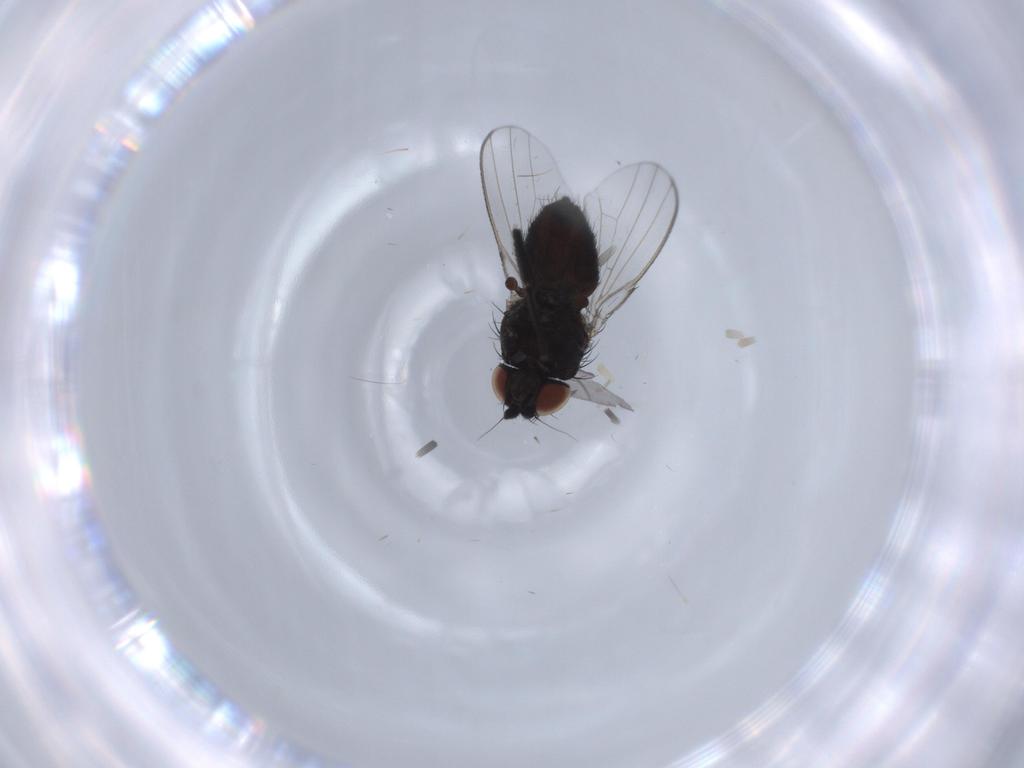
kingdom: Animalia
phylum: Arthropoda
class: Insecta
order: Diptera
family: Milichiidae
